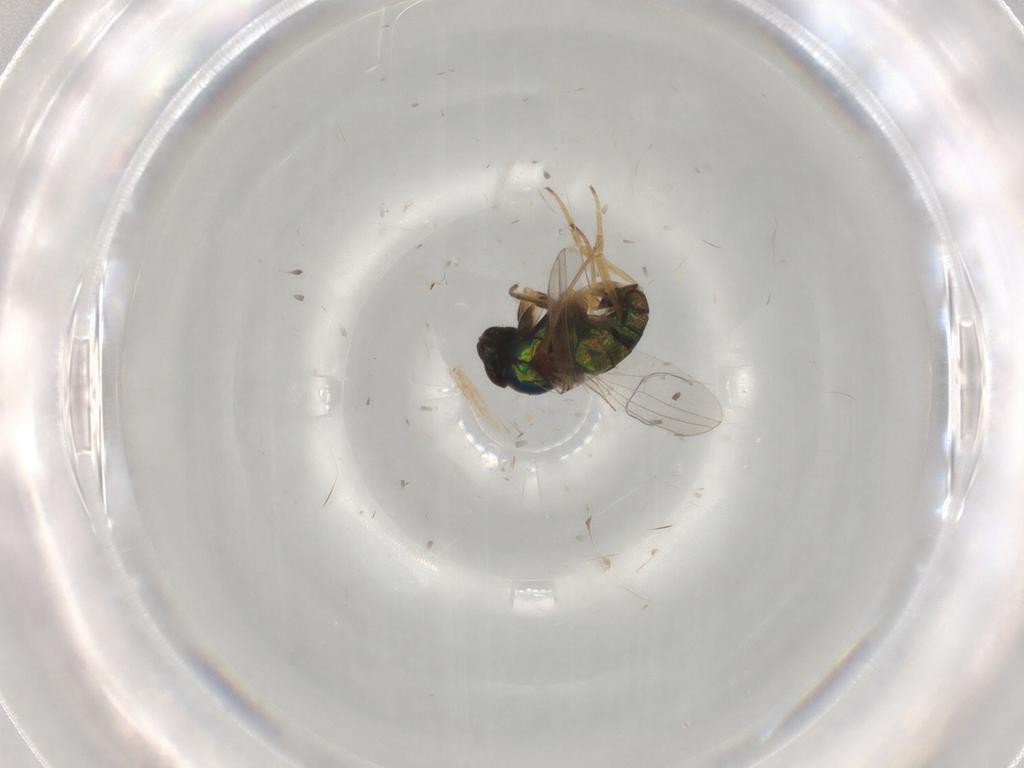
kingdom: Animalia
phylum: Arthropoda
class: Insecta
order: Diptera
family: Dolichopodidae
